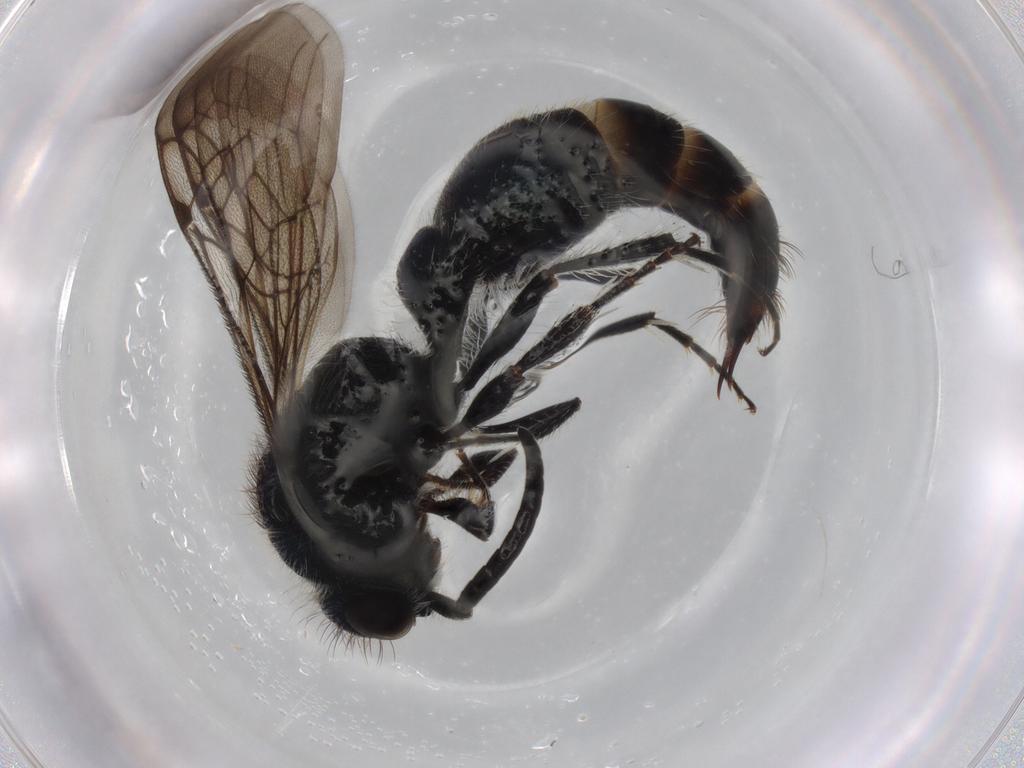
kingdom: Animalia
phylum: Arthropoda
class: Insecta
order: Hymenoptera
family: Mutillidae
